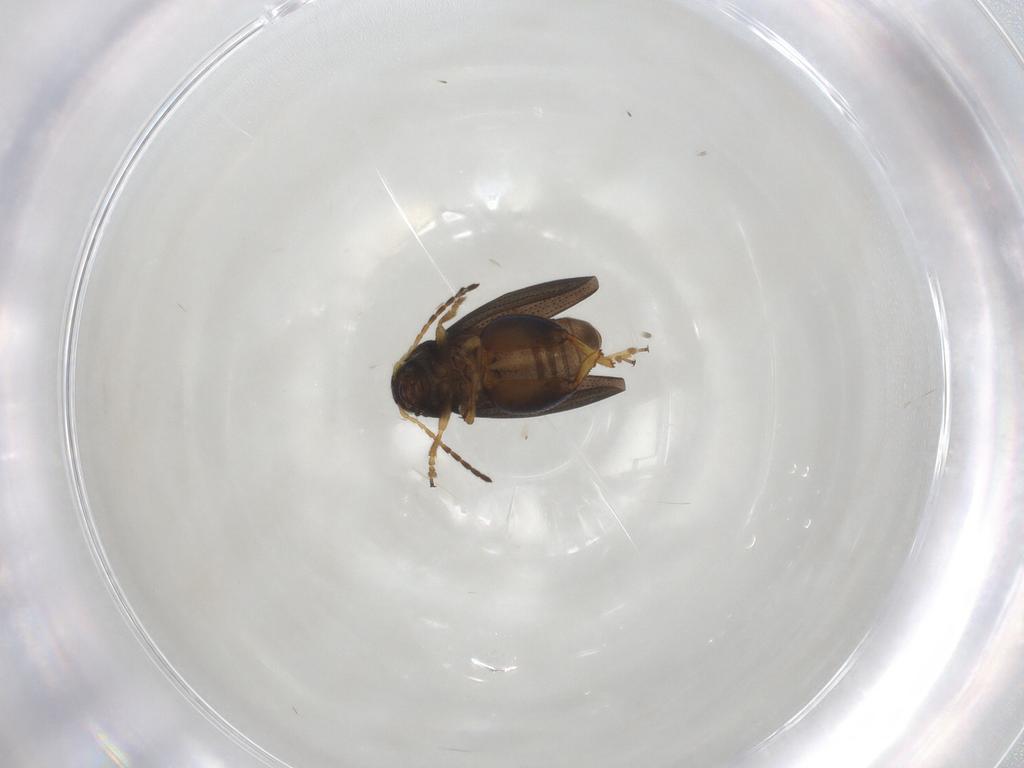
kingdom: Animalia
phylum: Arthropoda
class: Insecta
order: Coleoptera
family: Chrysomelidae
